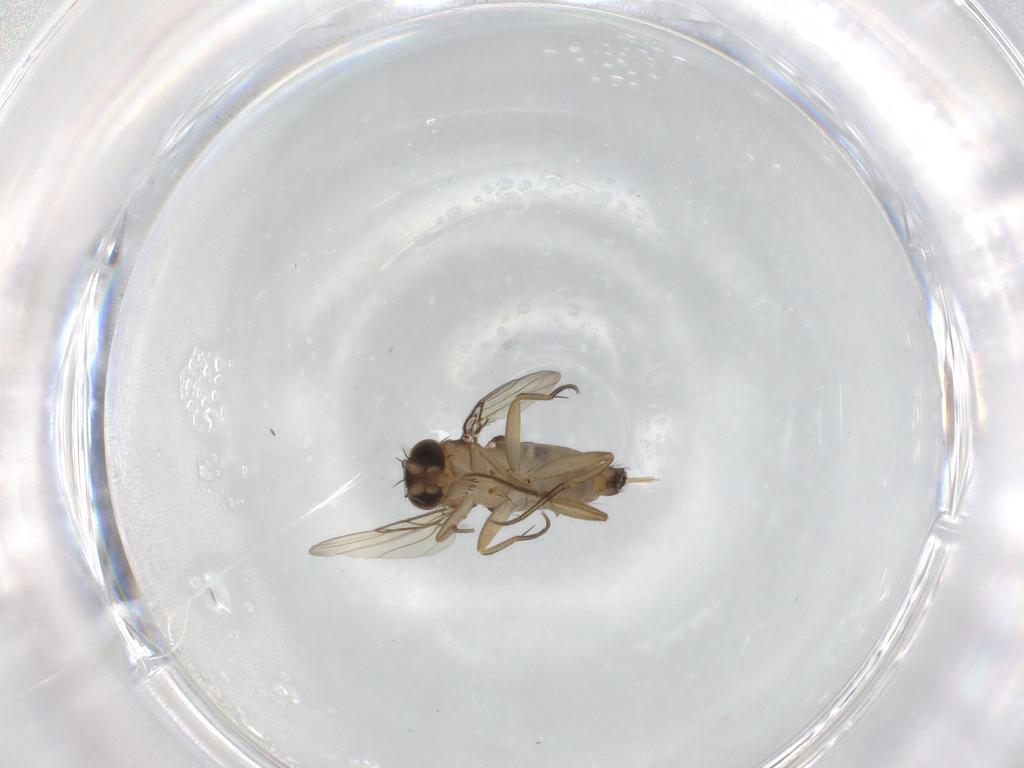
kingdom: Animalia
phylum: Arthropoda
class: Insecta
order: Diptera
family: Phoridae
